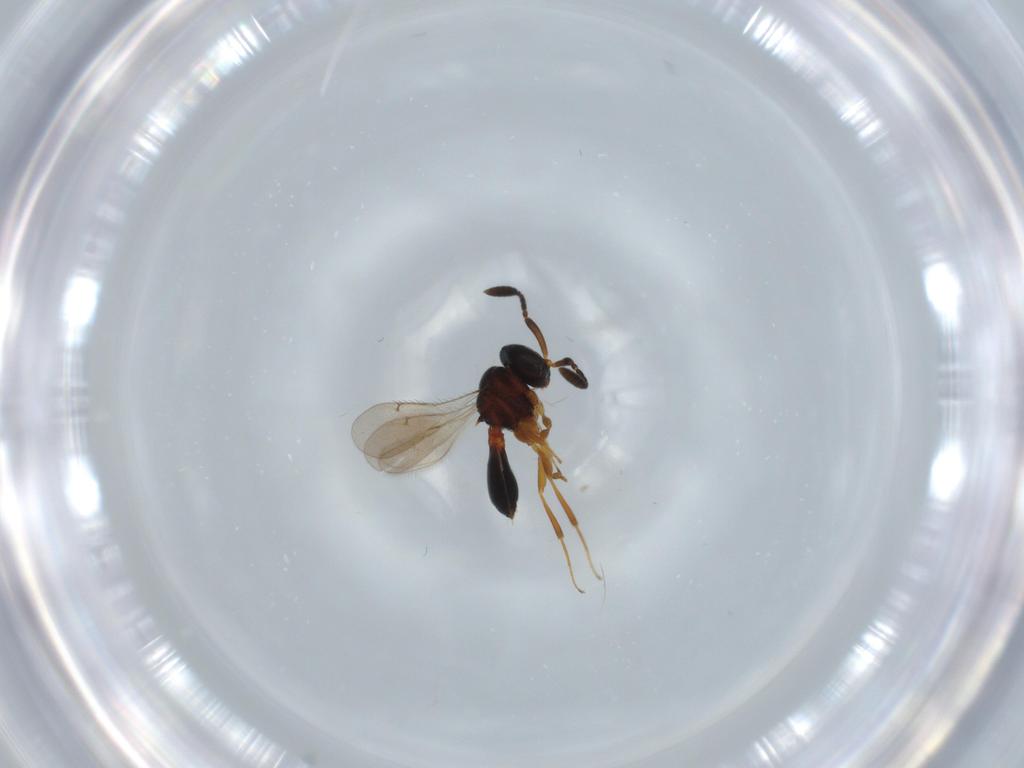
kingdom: Animalia
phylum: Arthropoda
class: Insecta
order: Hymenoptera
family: Scelionidae
